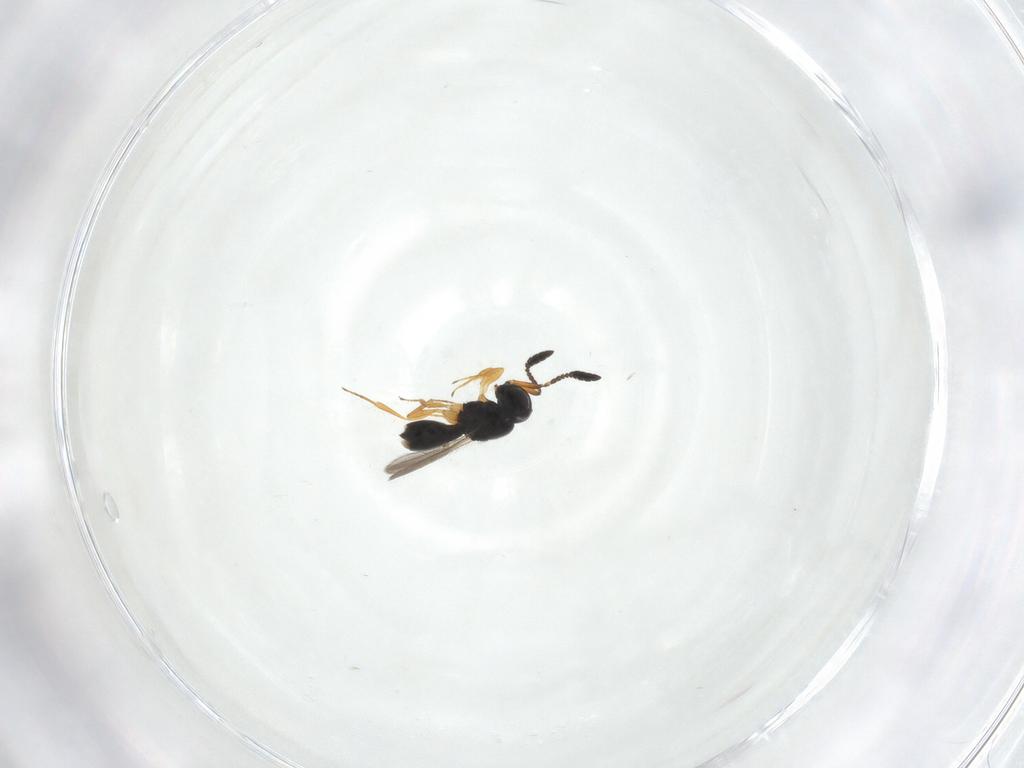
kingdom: Animalia
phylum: Arthropoda
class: Insecta
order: Hymenoptera
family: Scelionidae
